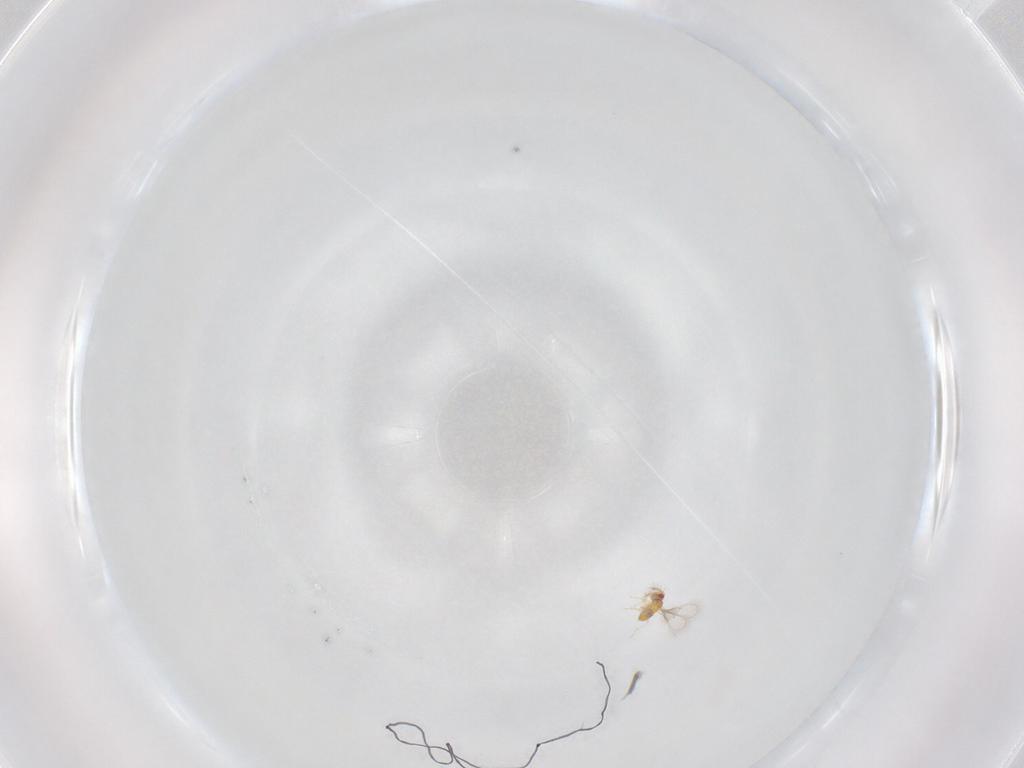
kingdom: Animalia
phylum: Arthropoda
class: Insecta
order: Hymenoptera
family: Trichogrammatidae
